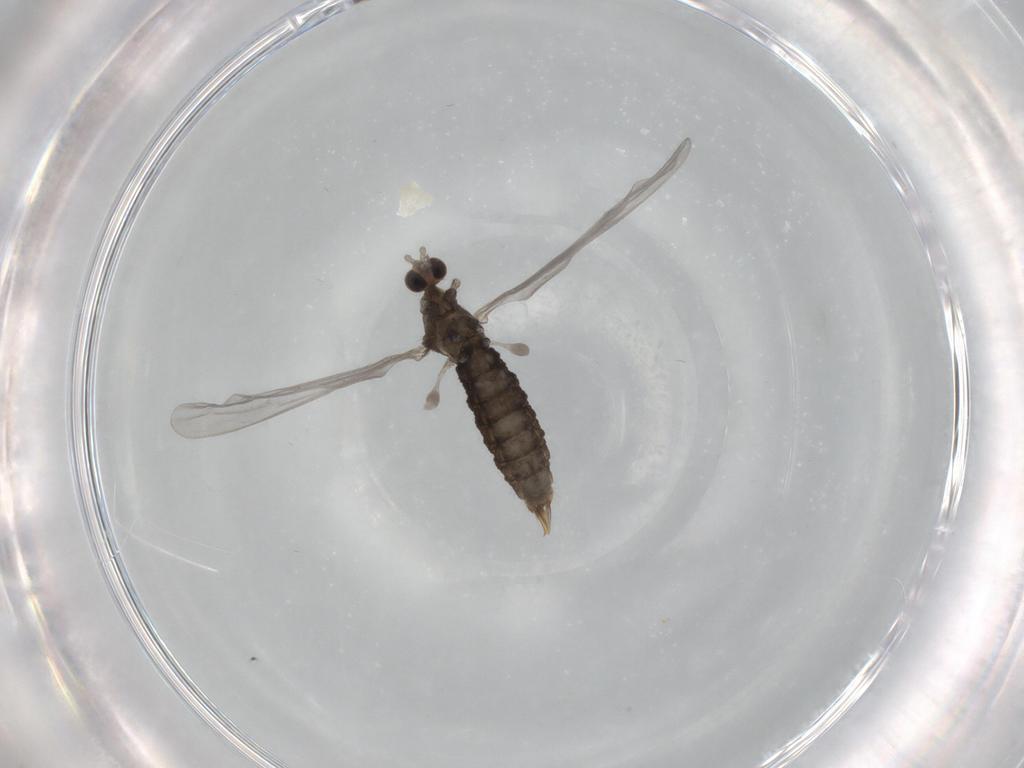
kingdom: Animalia
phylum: Arthropoda
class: Insecta
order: Diptera
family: Limoniidae
